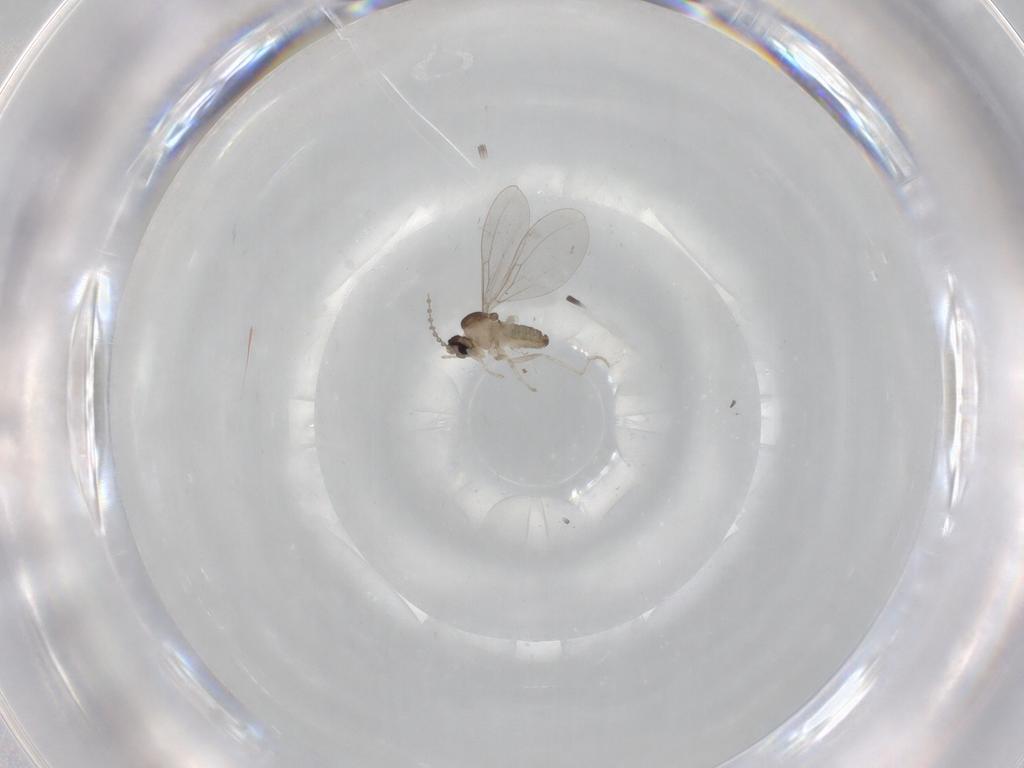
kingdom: Animalia
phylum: Arthropoda
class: Insecta
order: Diptera
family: Cecidomyiidae
